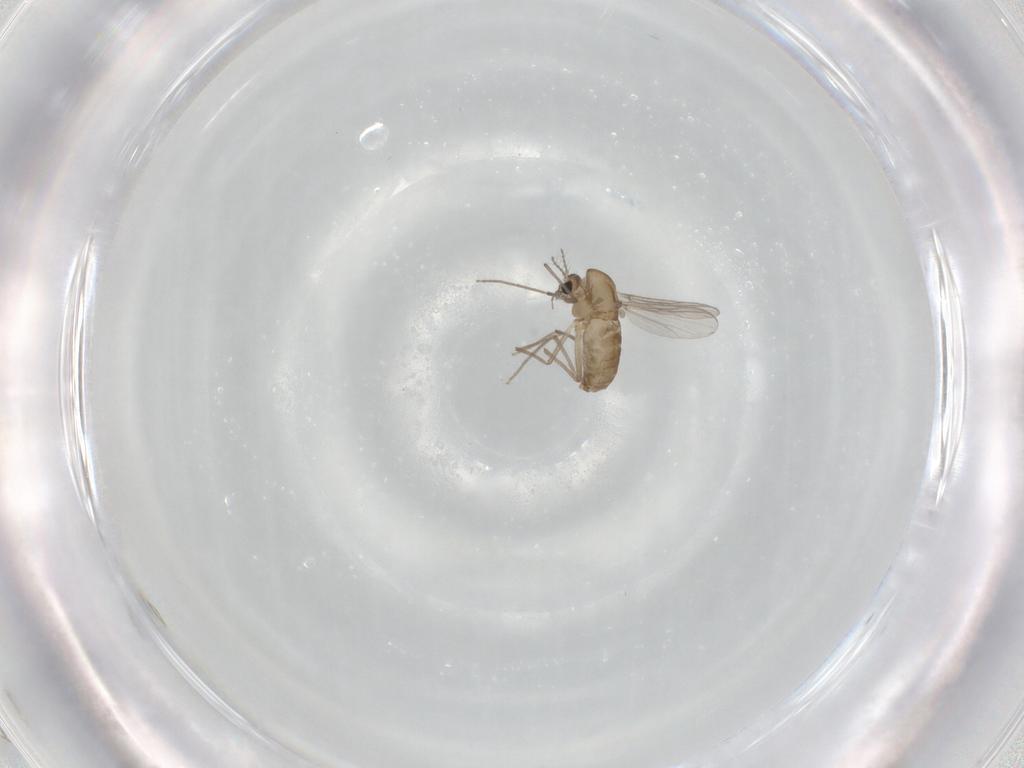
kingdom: Animalia
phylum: Arthropoda
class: Insecta
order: Diptera
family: Chironomidae
